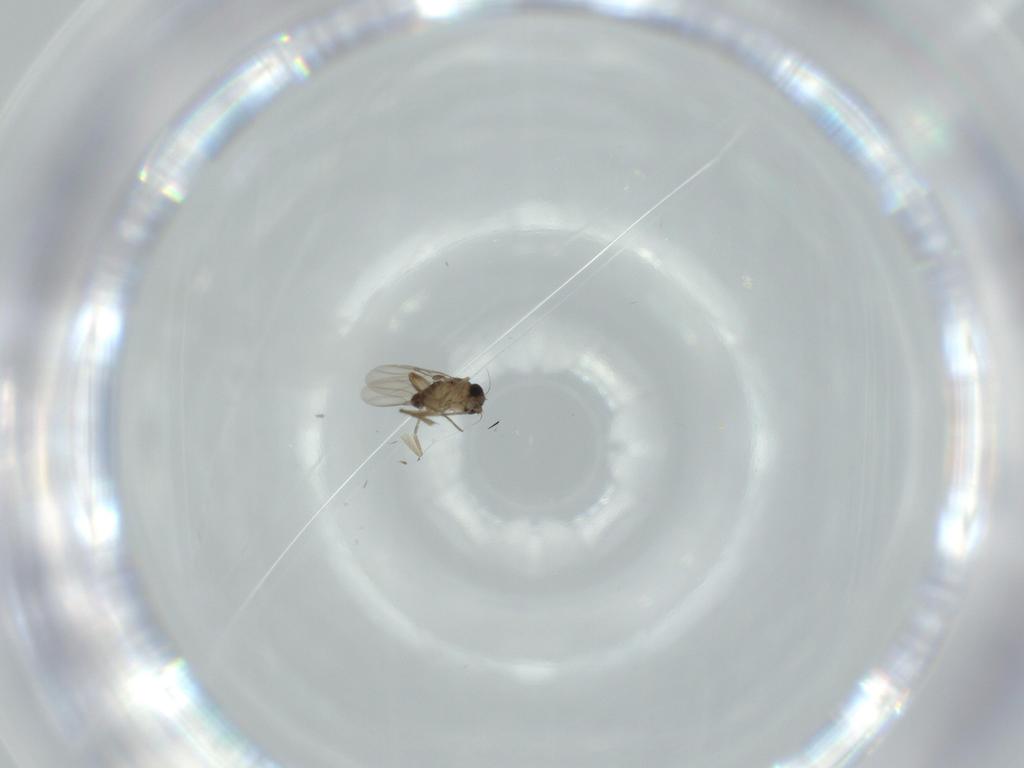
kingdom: Animalia
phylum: Arthropoda
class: Insecta
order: Diptera
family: Phoridae
